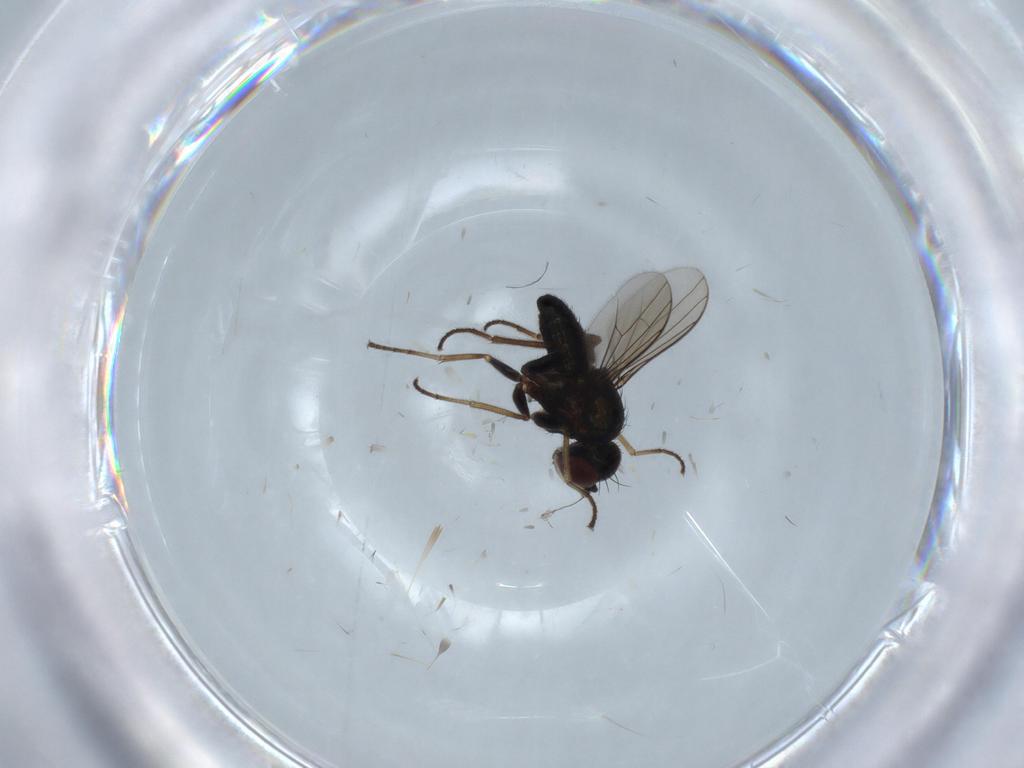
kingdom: Animalia
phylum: Arthropoda
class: Insecta
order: Diptera
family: Dolichopodidae
